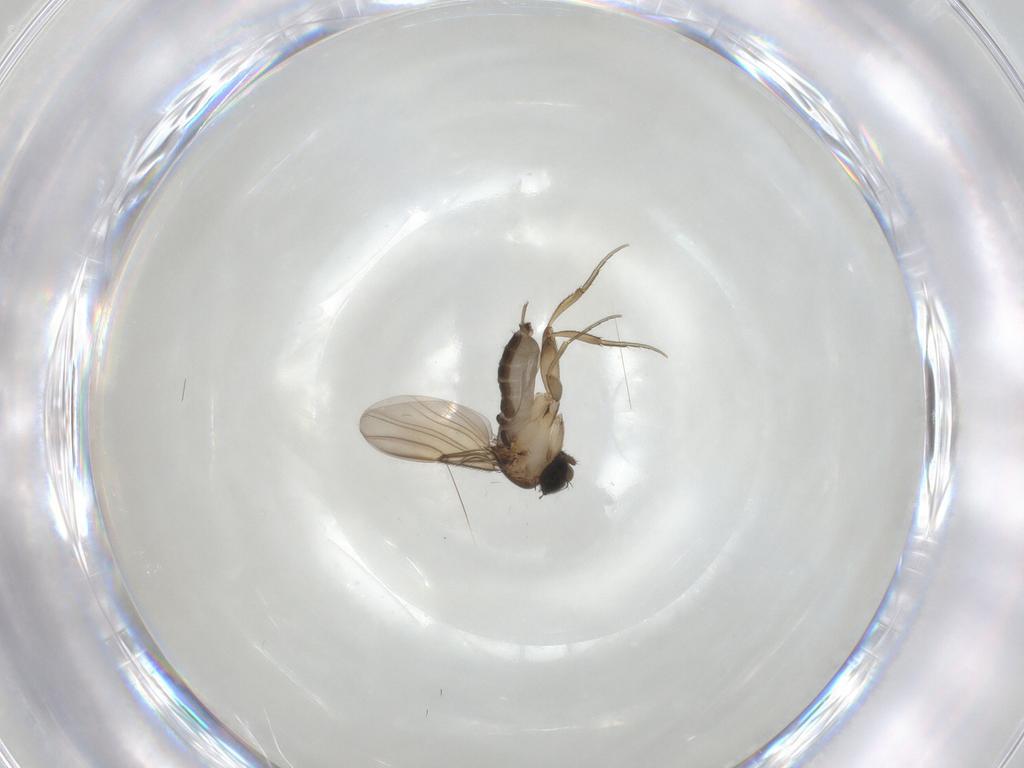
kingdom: Animalia
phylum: Arthropoda
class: Insecta
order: Diptera
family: Phoridae
